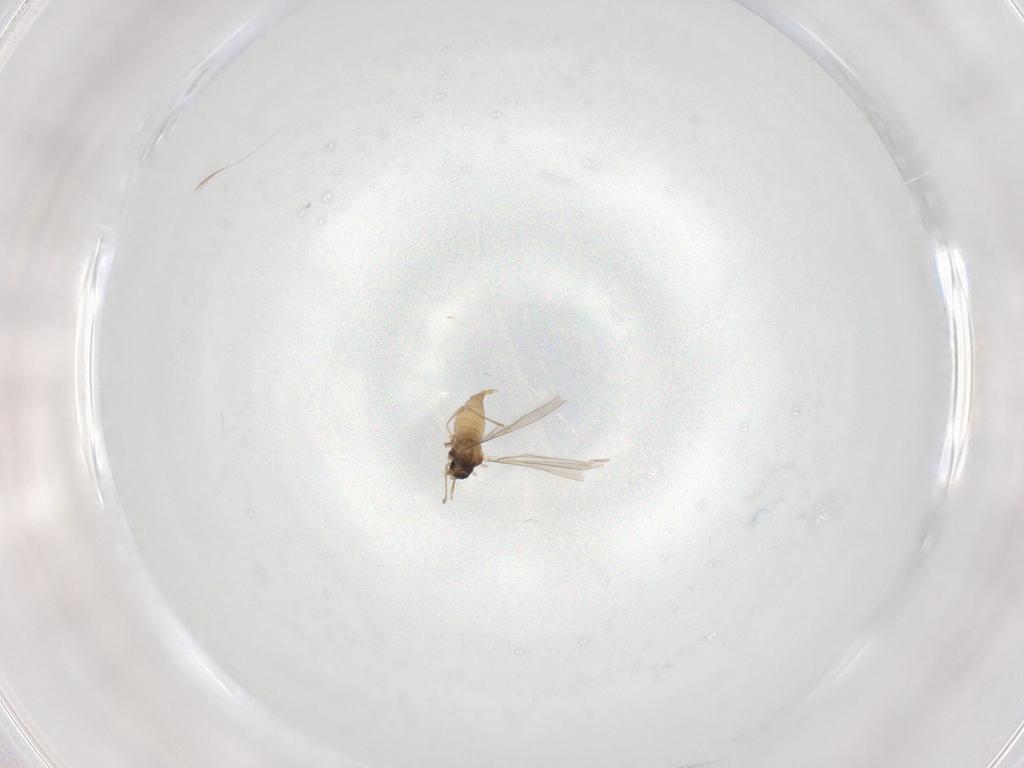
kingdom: Animalia
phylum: Arthropoda
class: Insecta
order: Diptera
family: Cecidomyiidae
